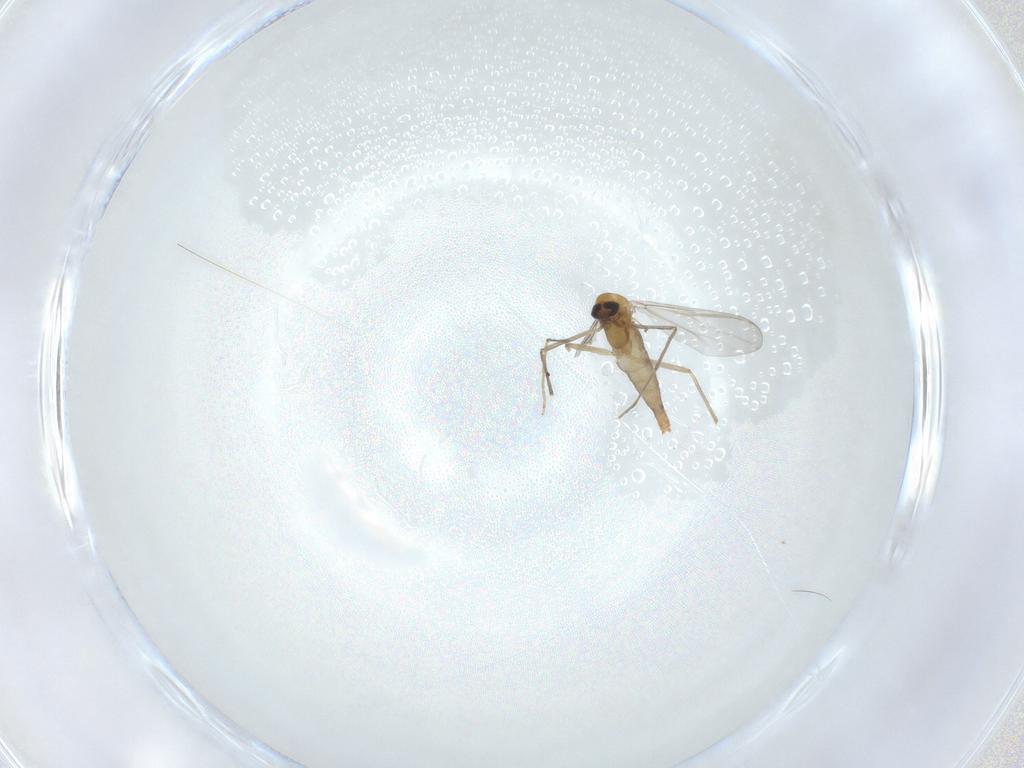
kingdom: Animalia
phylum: Arthropoda
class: Insecta
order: Diptera
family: Chironomidae
